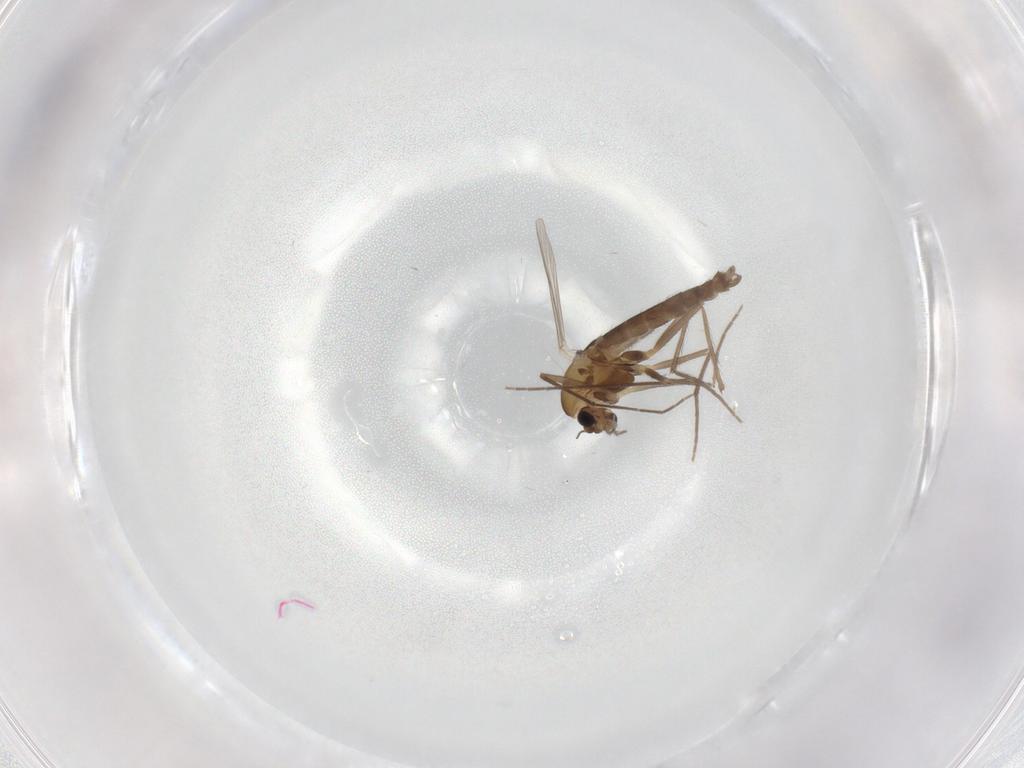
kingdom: Animalia
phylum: Arthropoda
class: Insecta
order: Diptera
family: Chironomidae
